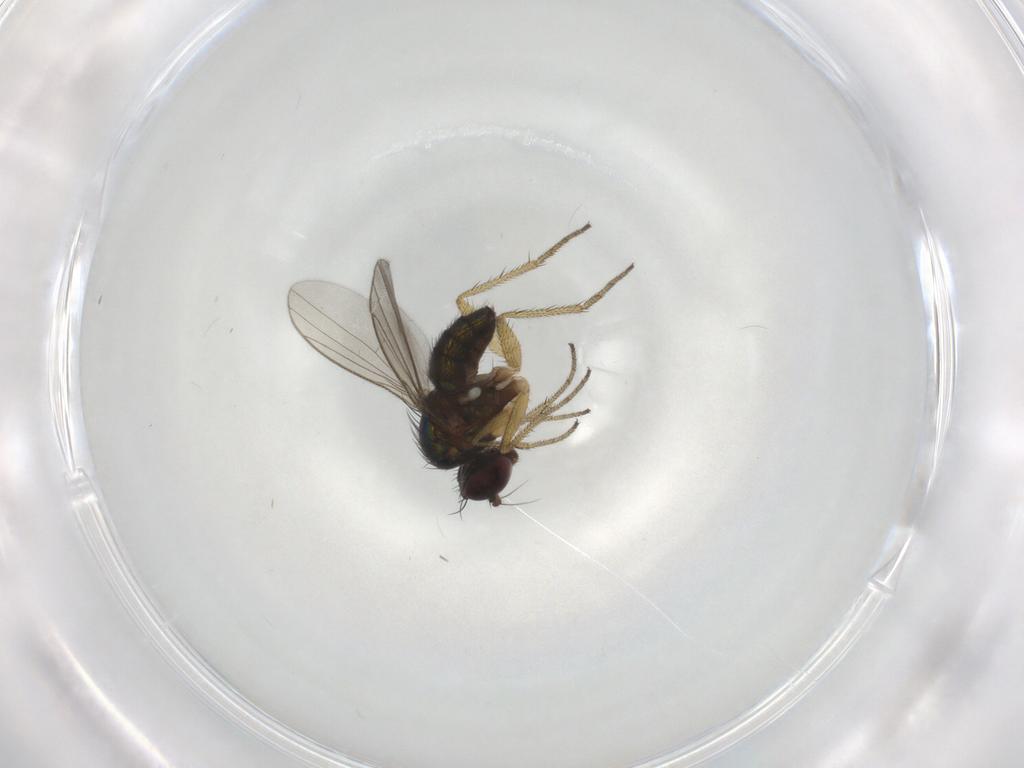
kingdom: Animalia
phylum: Arthropoda
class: Insecta
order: Diptera
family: Dolichopodidae
